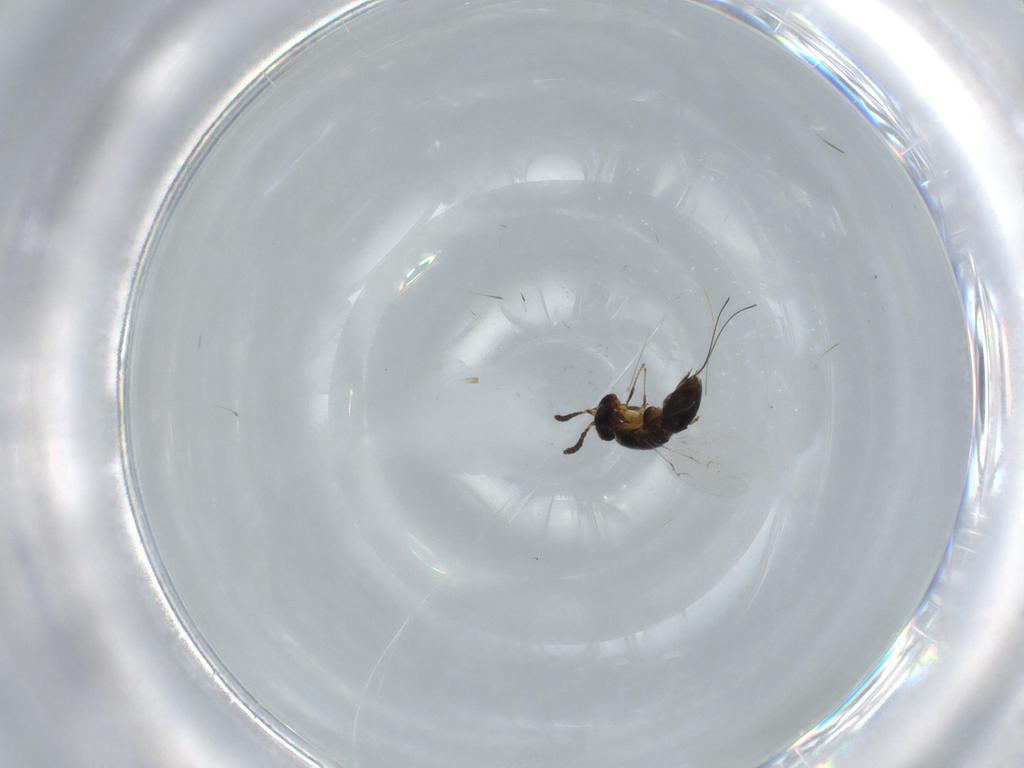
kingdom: Animalia
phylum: Arthropoda
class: Insecta
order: Hymenoptera
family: Agaonidae
